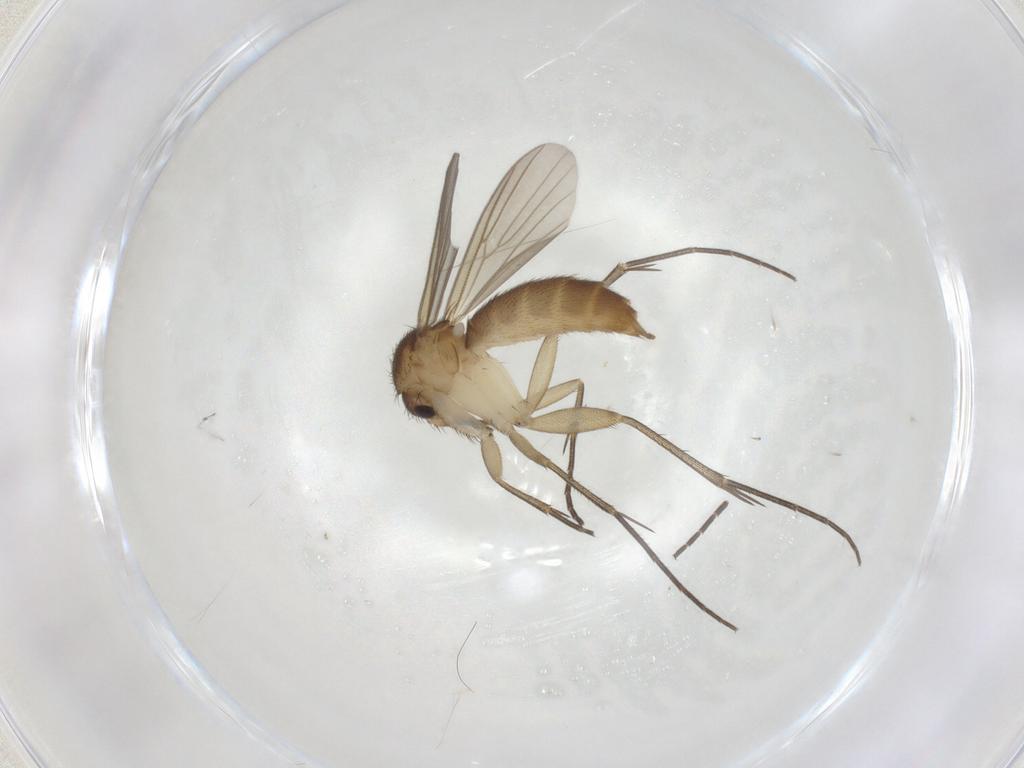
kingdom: Animalia
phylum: Arthropoda
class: Insecta
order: Diptera
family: Mycetophilidae
